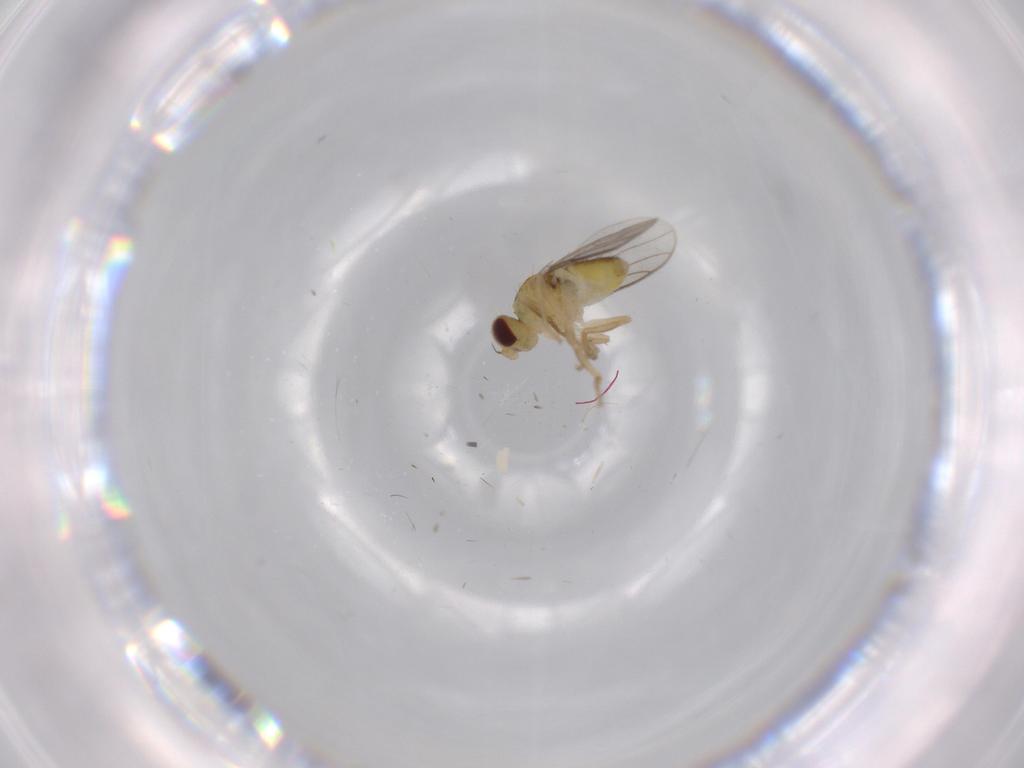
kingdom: Animalia
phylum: Arthropoda
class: Insecta
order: Diptera
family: Chloropidae
